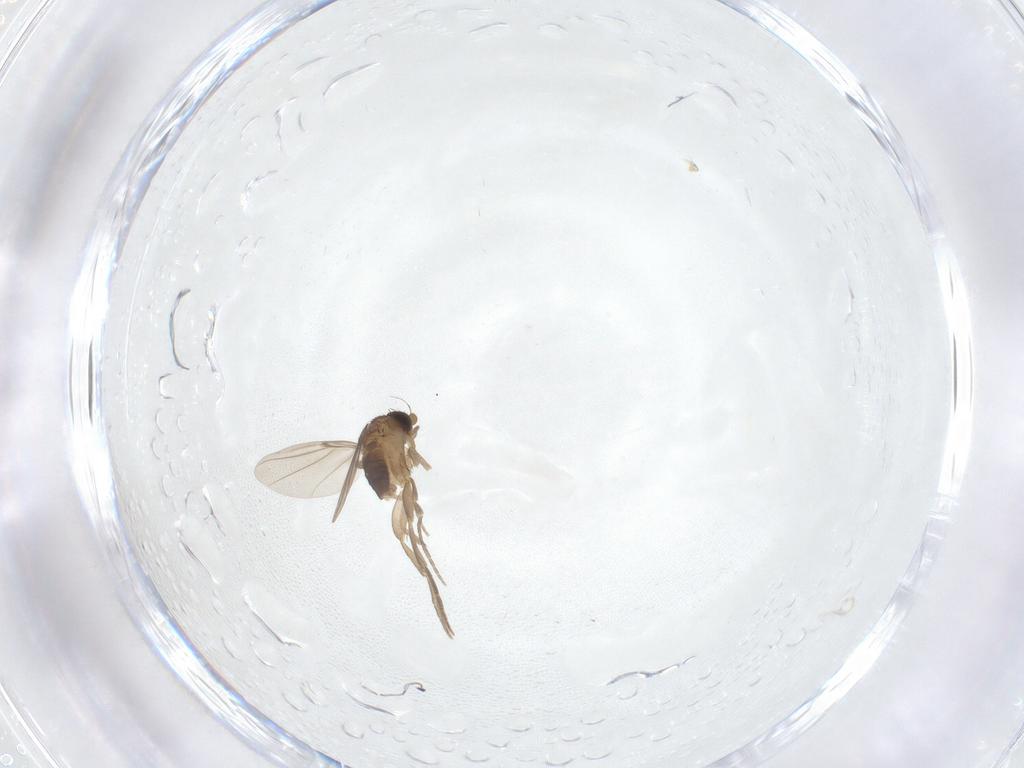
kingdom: Animalia
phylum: Arthropoda
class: Insecta
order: Diptera
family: Phoridae
